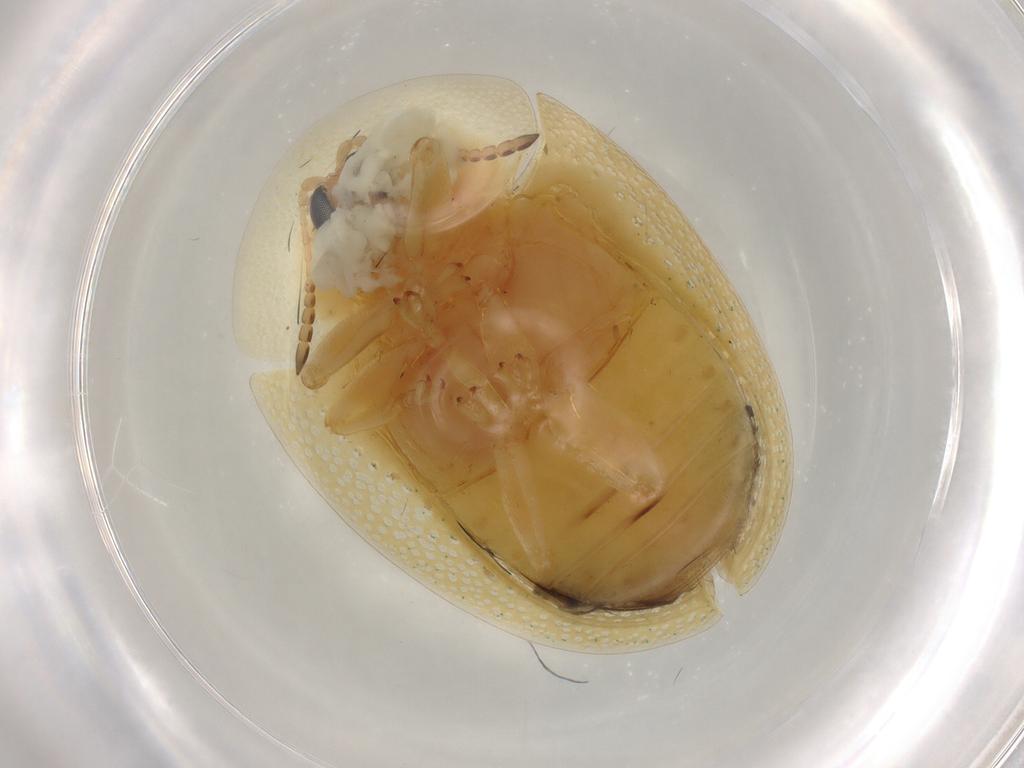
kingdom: Animalia
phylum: Arthropoda
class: Insecta
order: Coleoptera
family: Chrysomelidae
